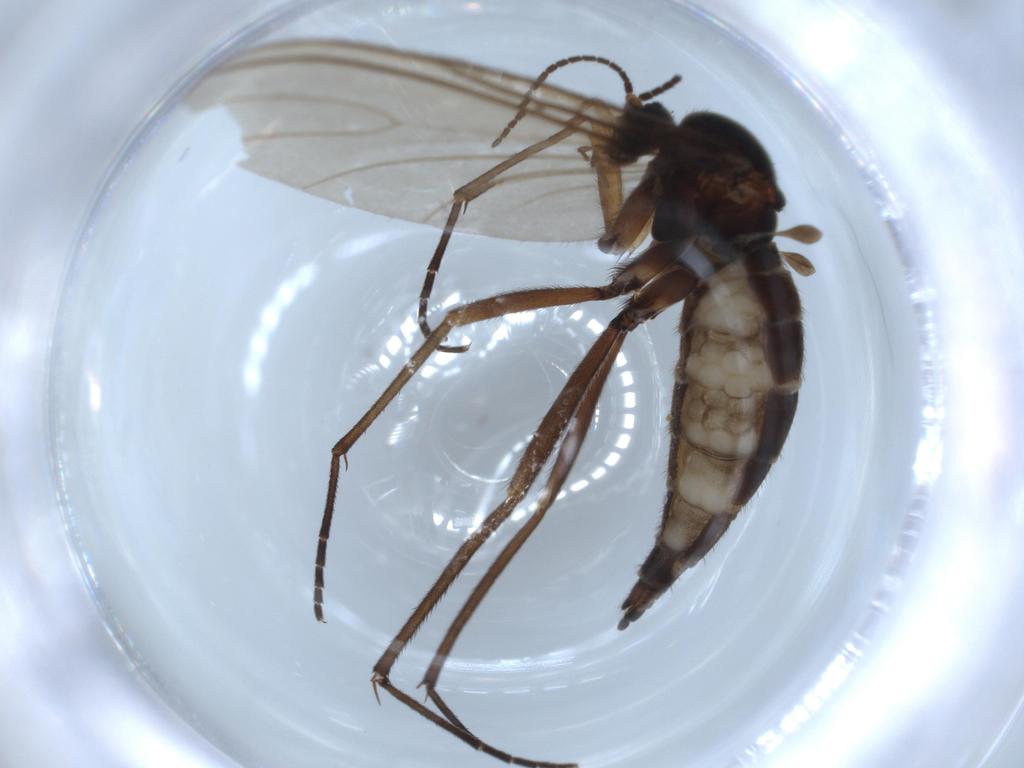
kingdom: Animalia
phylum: Arthropoda
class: Insecta
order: Diptera
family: Sciaridae
